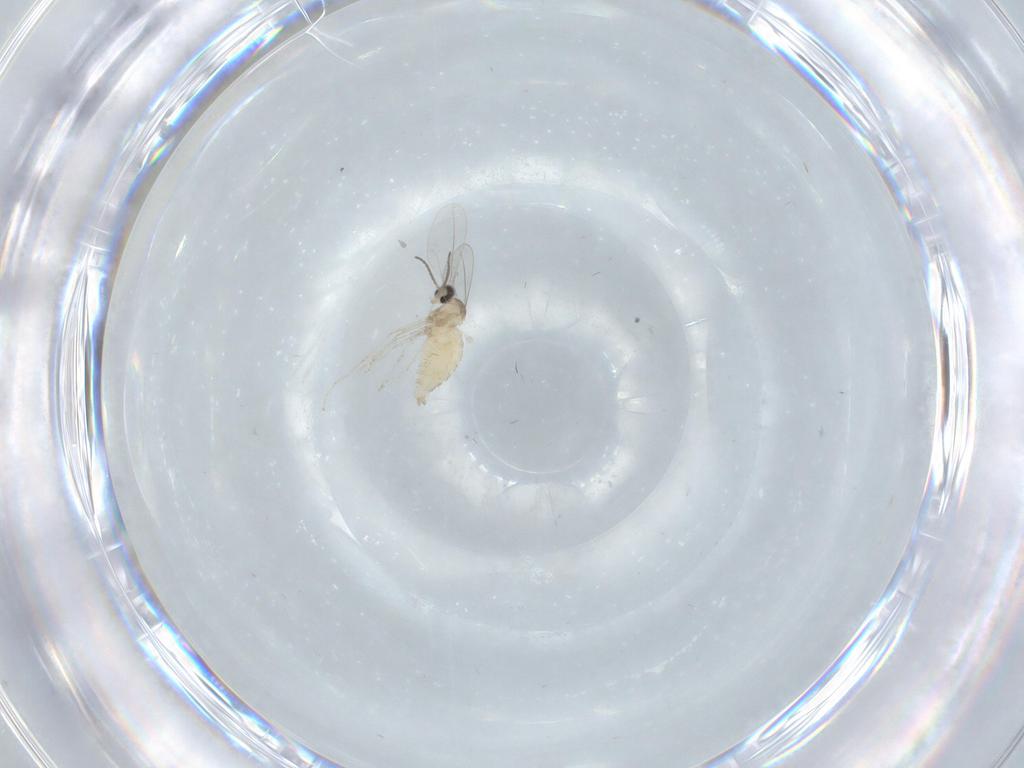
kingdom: Animalia
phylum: Arthropoda
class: Insecta
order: Diptera
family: Cecidomyiidae
